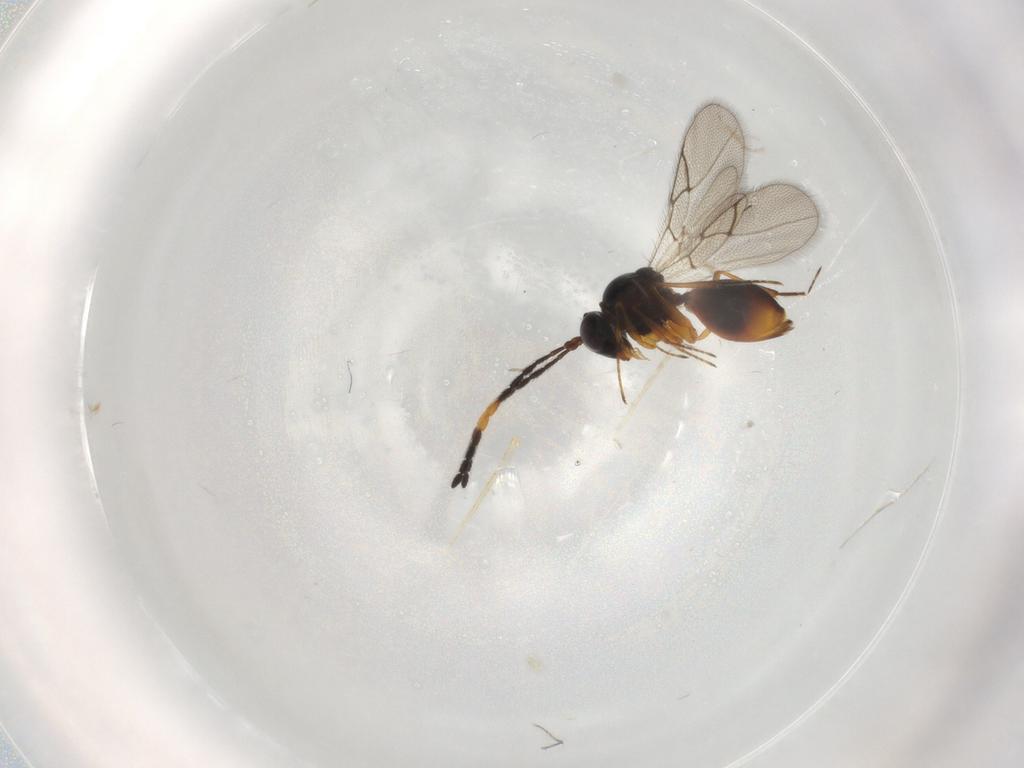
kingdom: Animalia
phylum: Arthropoda
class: Insecta
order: Hymenoptera
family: Figitidae
